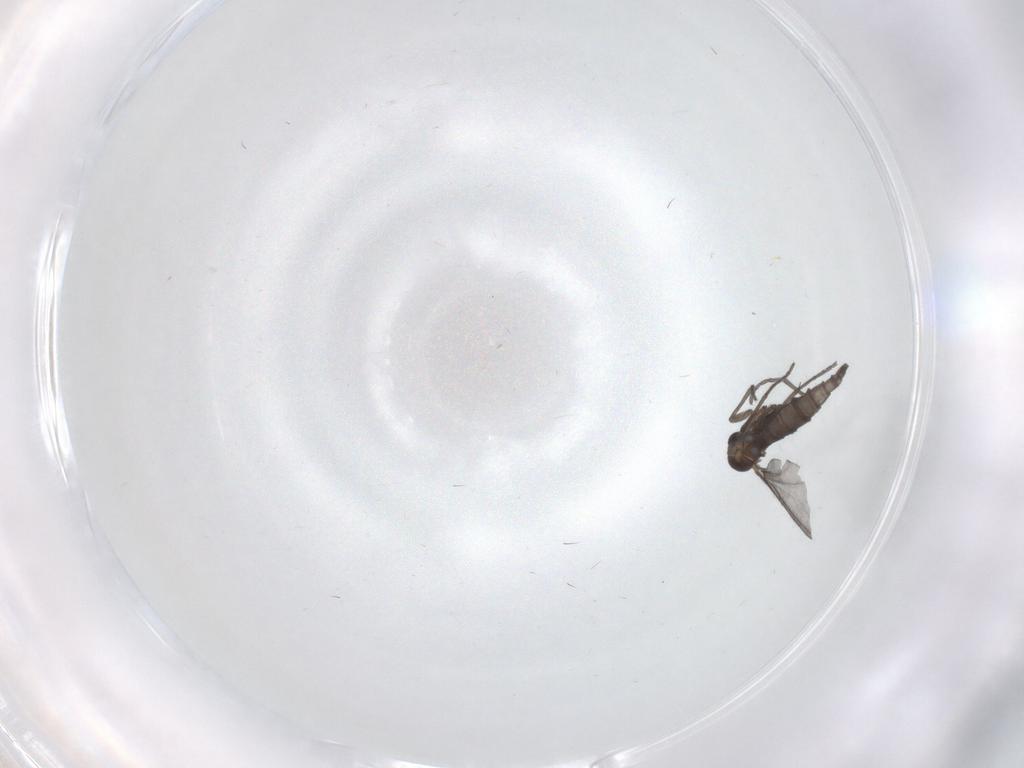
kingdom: Animalia
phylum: Arthropoda
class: Insecta
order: Diptera
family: Sciaridae
